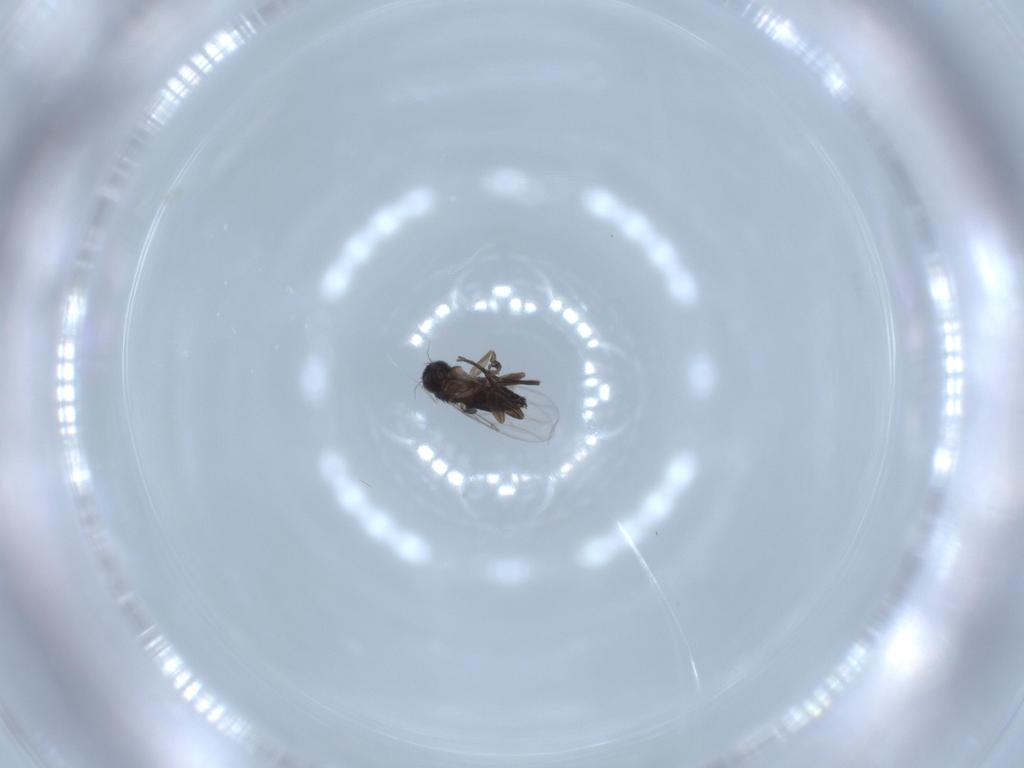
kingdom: Animalia
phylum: Arthropoda
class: Insecta
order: Diptera
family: Phoridae
